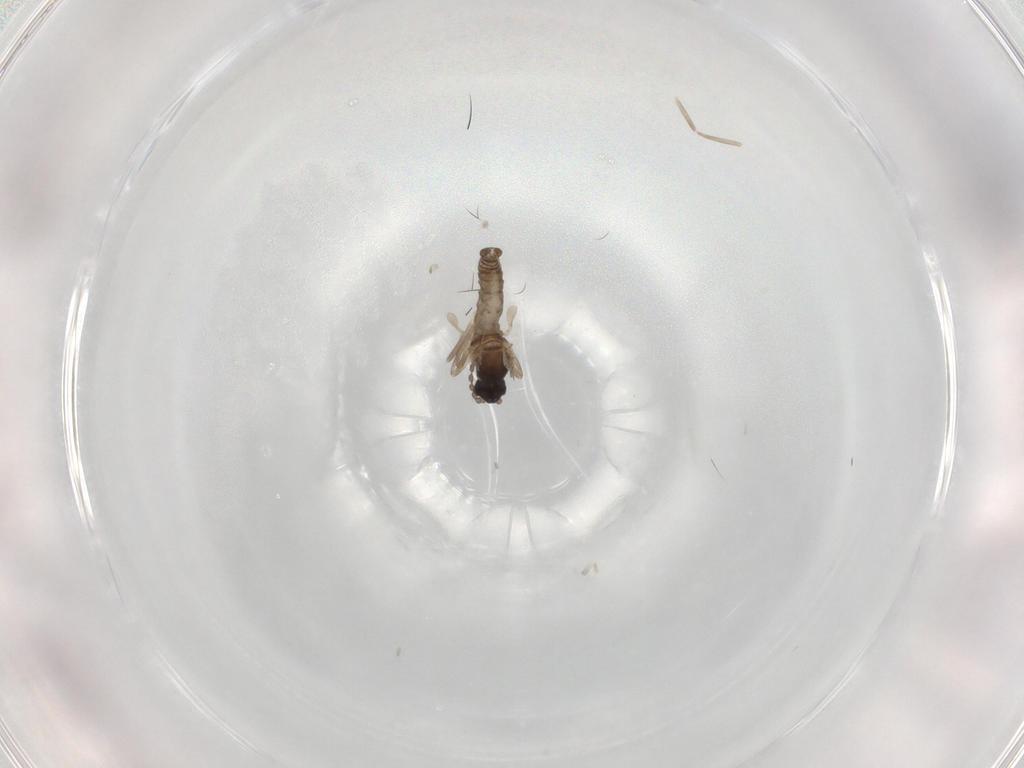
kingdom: Animalia
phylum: Arthropoda
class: Insecta
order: Diptera
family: Cecidomyiidae
